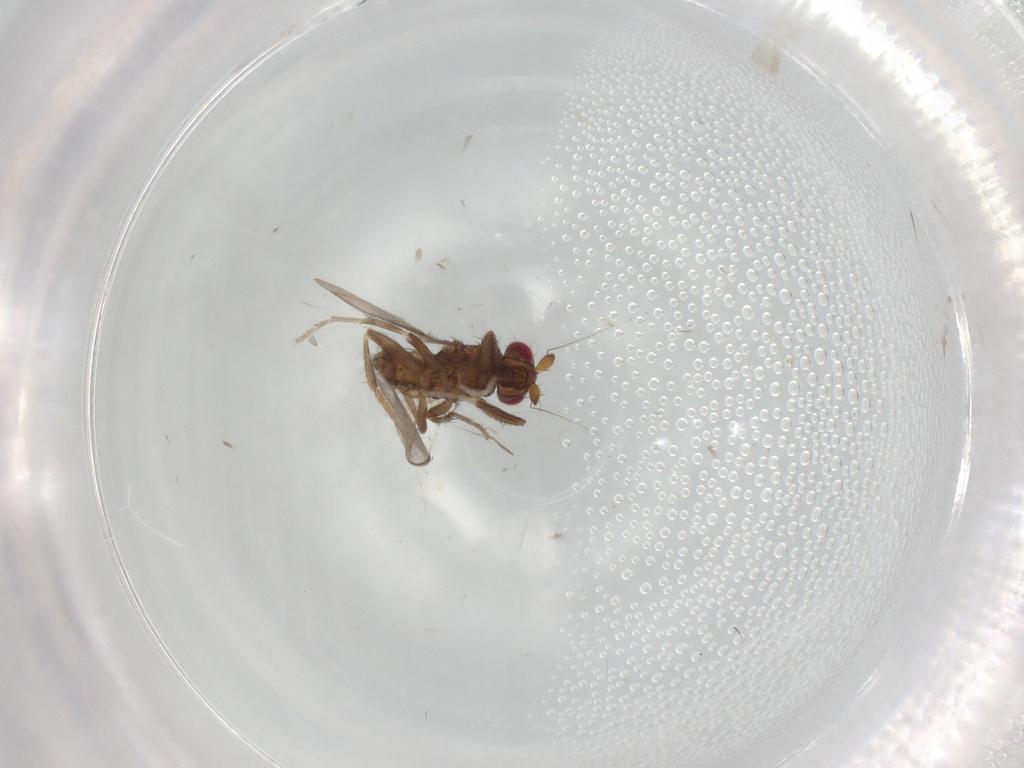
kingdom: Animalia
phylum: Arthropoda
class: Insecta
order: Diptera
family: Sphaeroceridae
